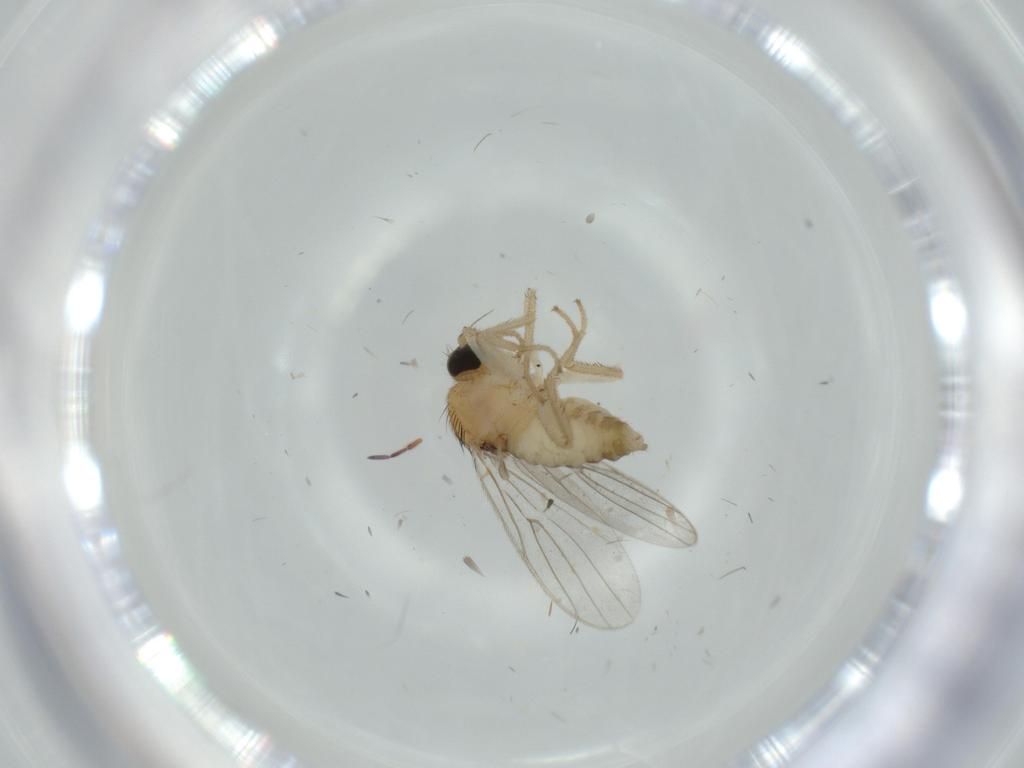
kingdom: Animalia
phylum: Arthropoda
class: Insecta
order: Diptera
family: Hybotidae
